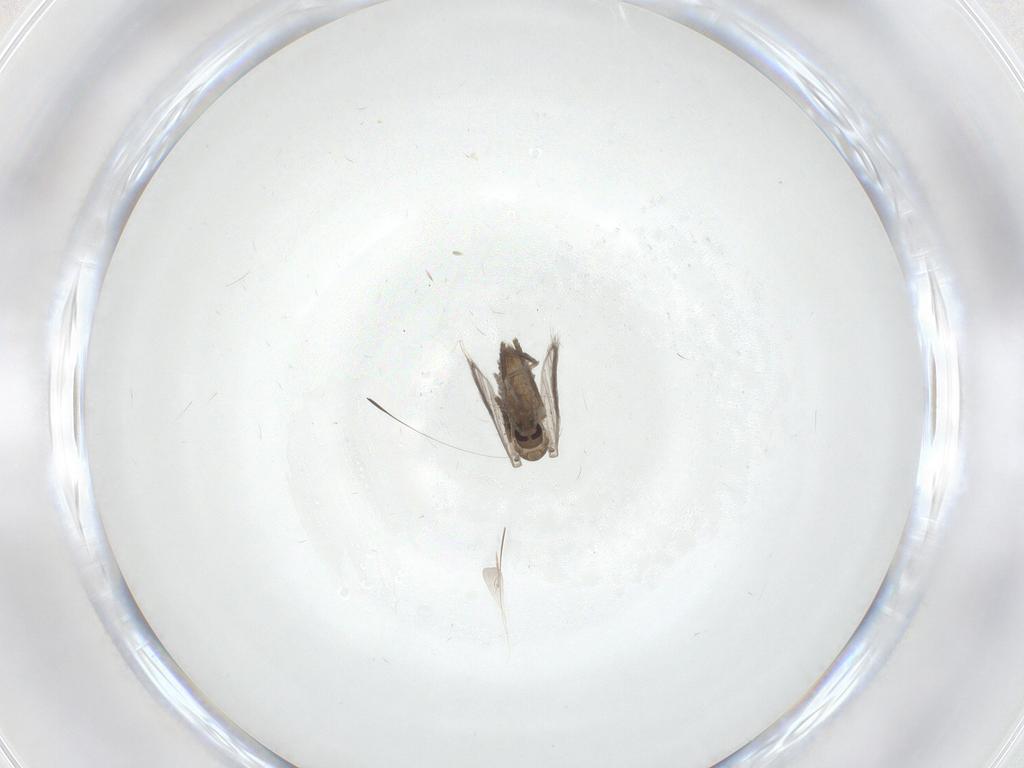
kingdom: Animalia
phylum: Arthropoda
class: Insecta
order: Diptera
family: Psychodidae
